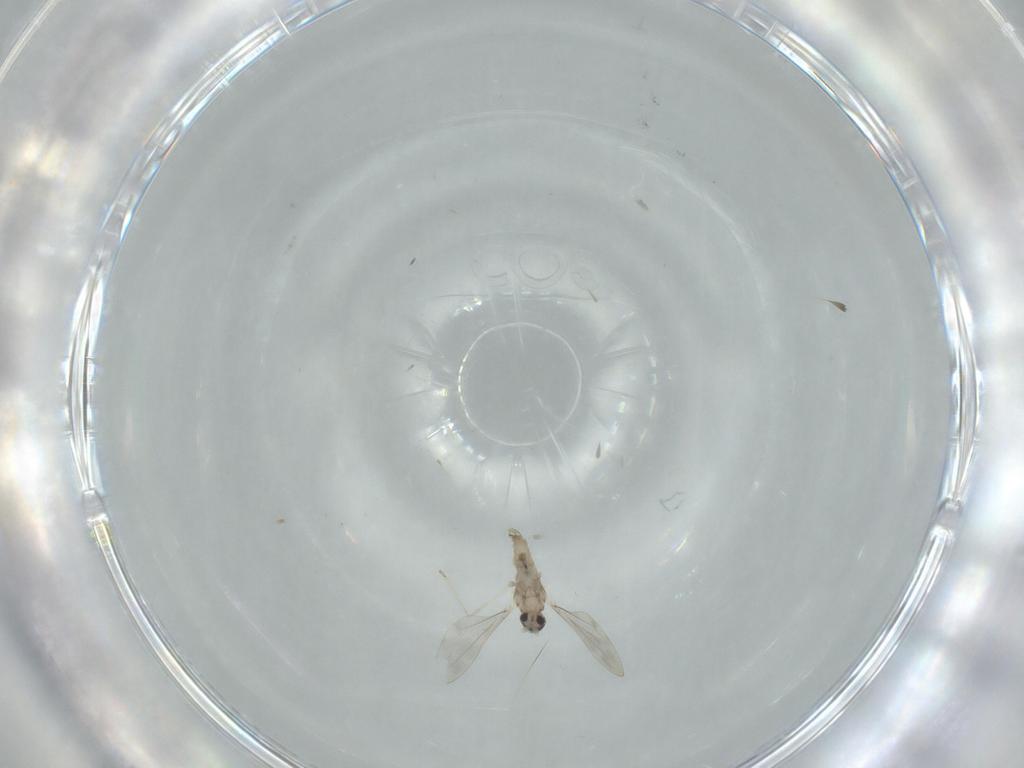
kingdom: Animalia
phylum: Arthropoda
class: Insecta
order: Diptera
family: Cecidomyiidae
